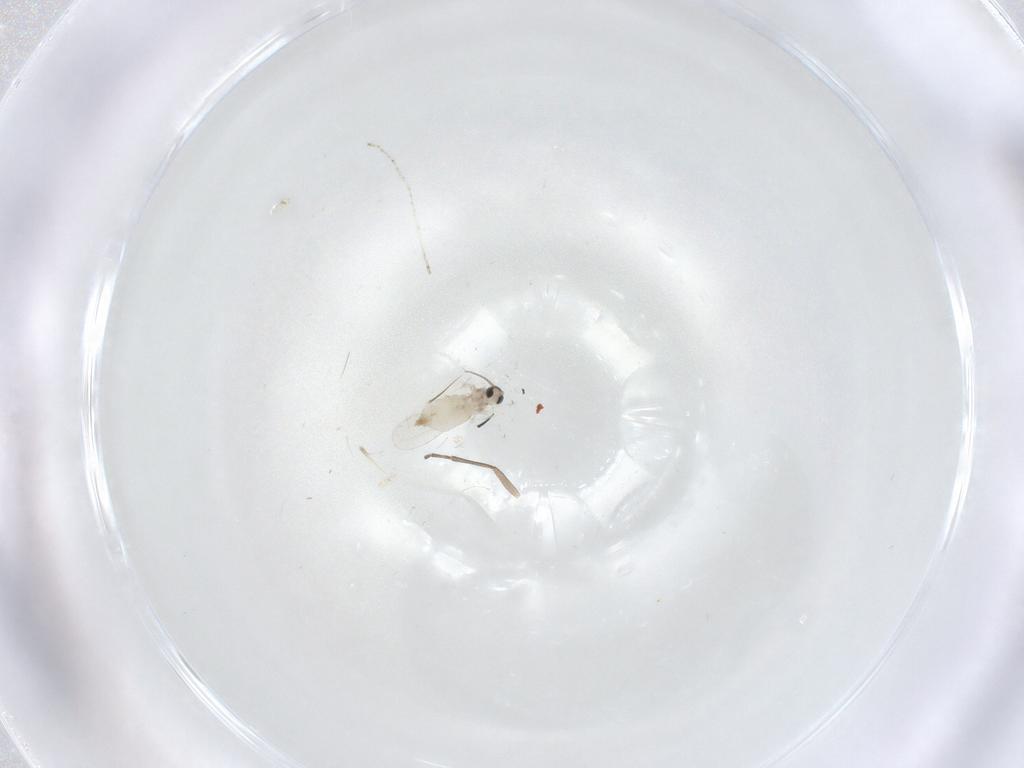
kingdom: Animalia
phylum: Arthropoda
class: Insecta
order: Diptera
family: Cecidomyiidae
